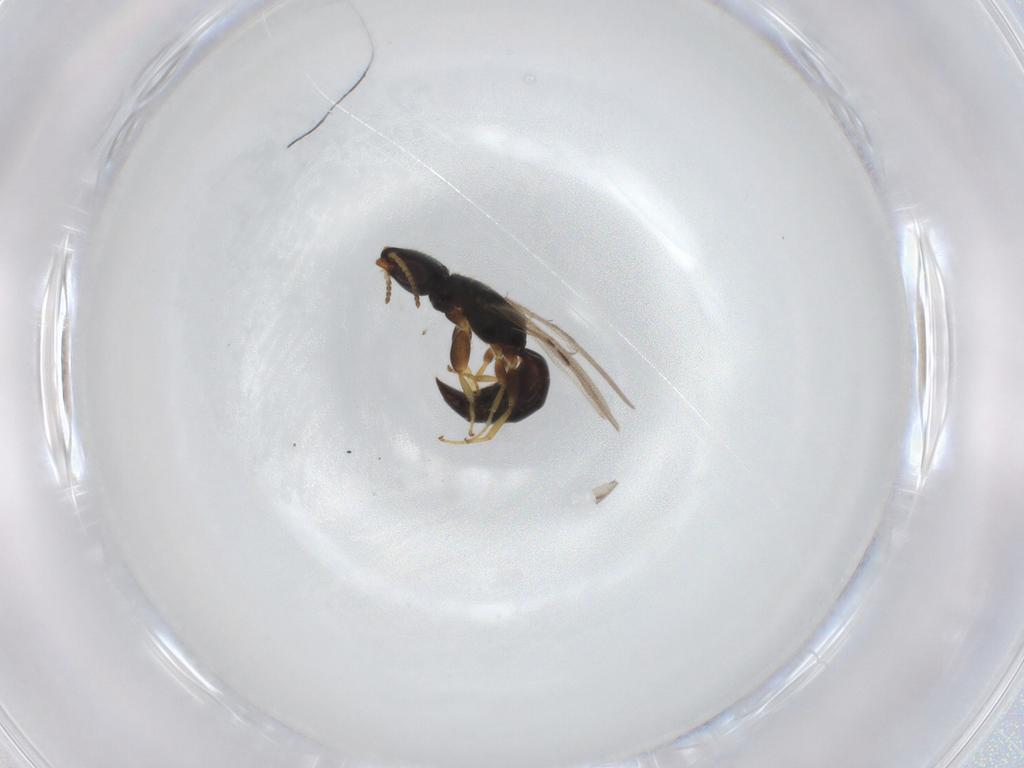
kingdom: Animalia
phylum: Arthropoda
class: Insecta
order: Hymenoptera
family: Bethylidae
